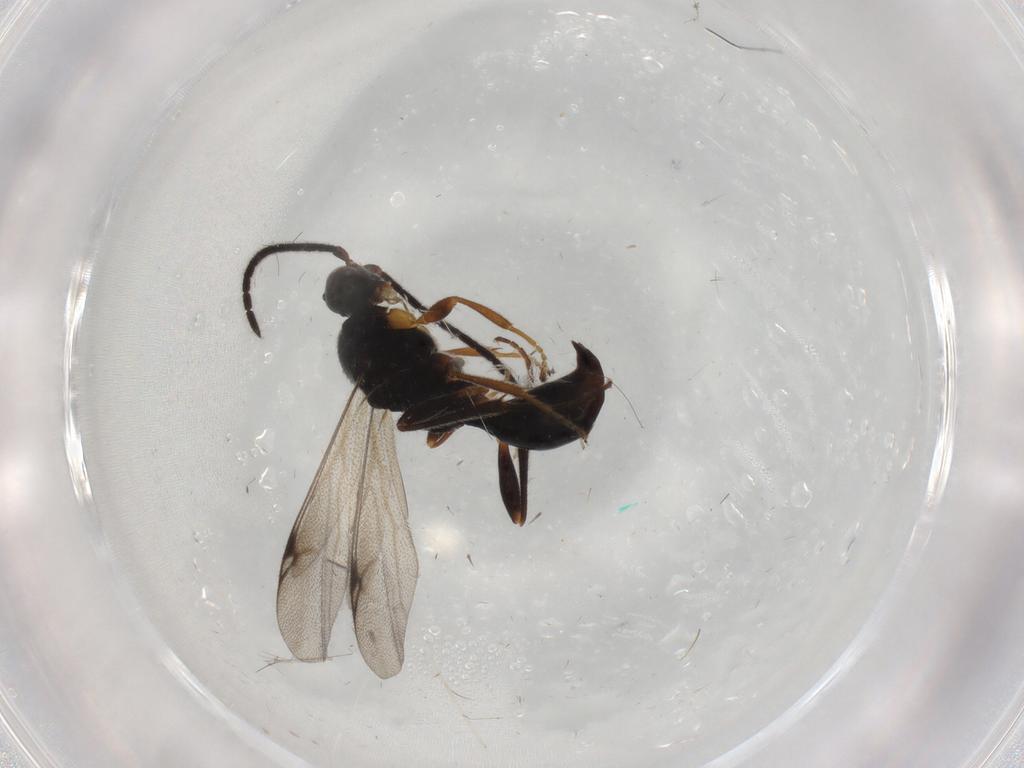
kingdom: Animalia
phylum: Arthropoda
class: Insecta
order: Hymenoptera
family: Proctotrupidae
